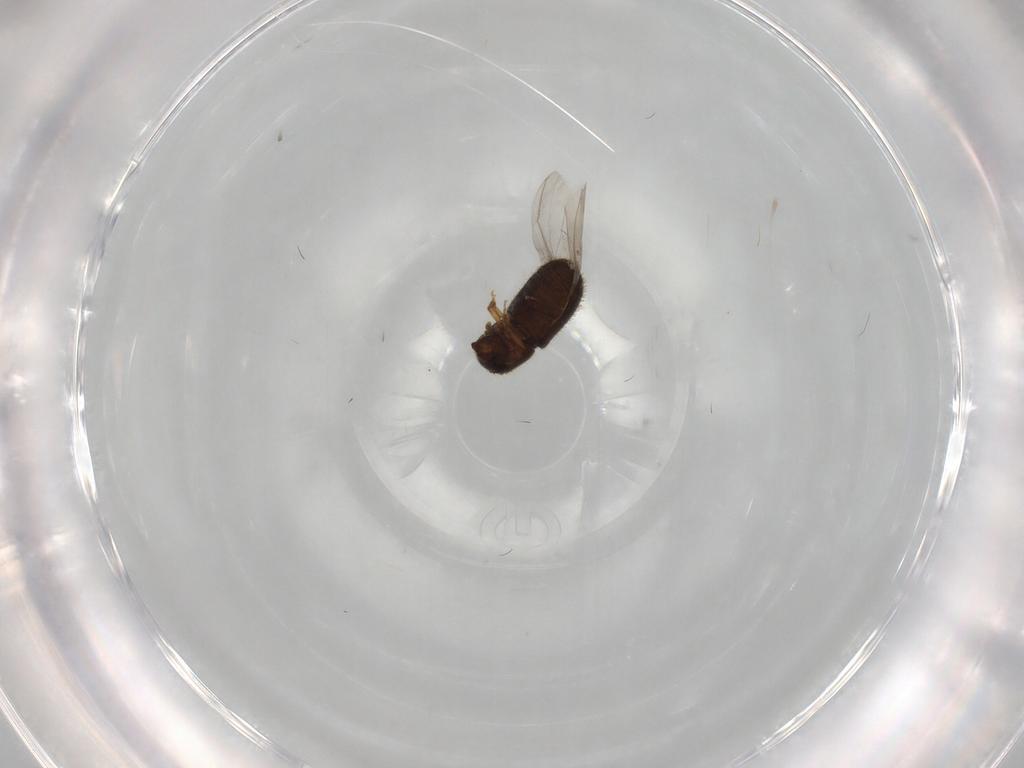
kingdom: Animalia
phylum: Arthropoda
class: Insecta
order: Coleoptera
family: Curculionidae
